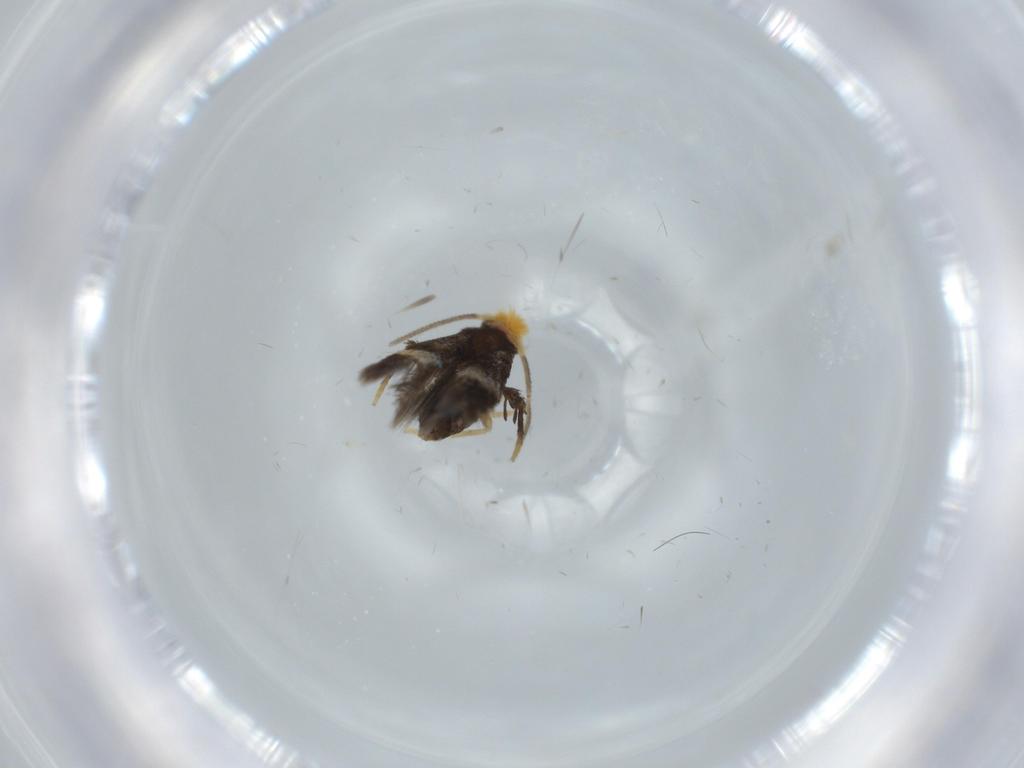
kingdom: Animalia
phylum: Arthropoda
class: Insecta
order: Lepidoptera
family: Nepticulidae
